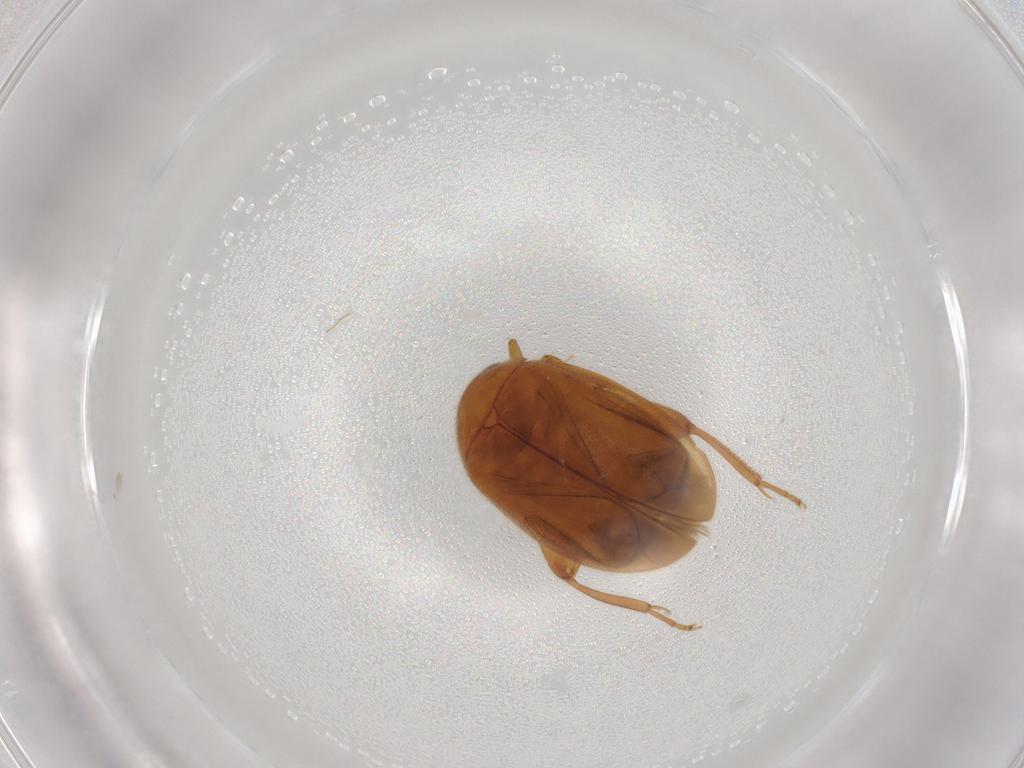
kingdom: Animalia
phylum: Arthropoda
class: Insecta
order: Coleoptera
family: Scirtidae
